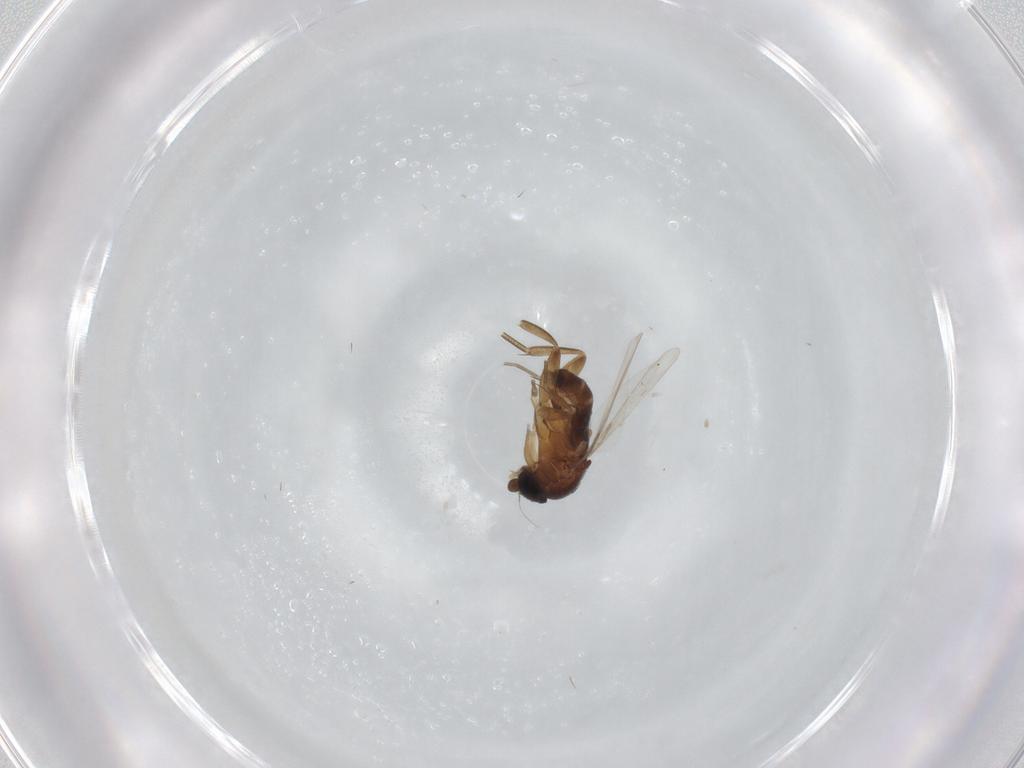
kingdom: Animalia
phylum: Arthropoda
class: Insecta
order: Diptera
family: Phoridae
